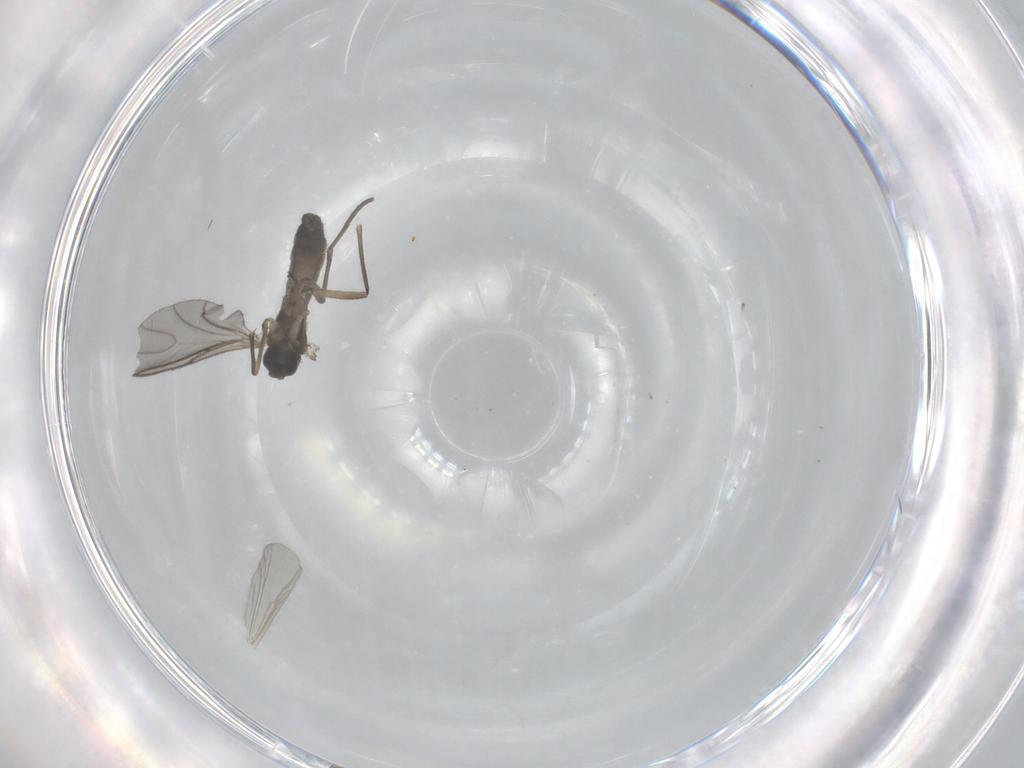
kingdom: Animalia
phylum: Arthropoda
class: Insecta
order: Diptera
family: Sciaridae
